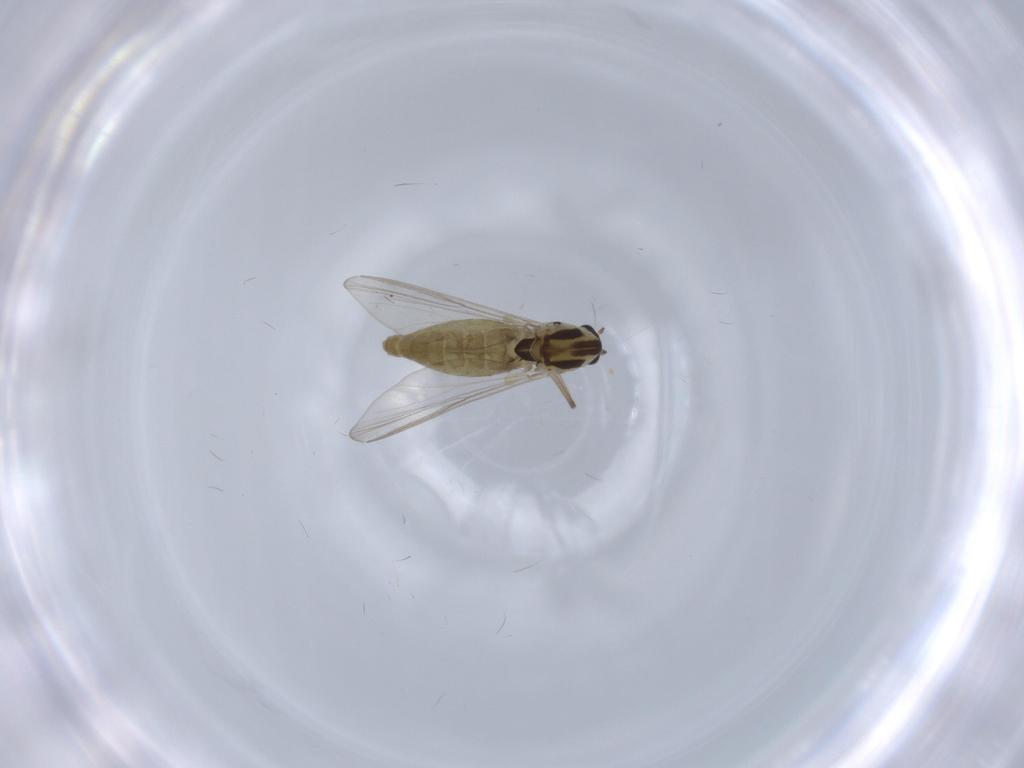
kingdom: Animalia
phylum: Arthropoda
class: Insecta
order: Diptera
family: Chironomidae
